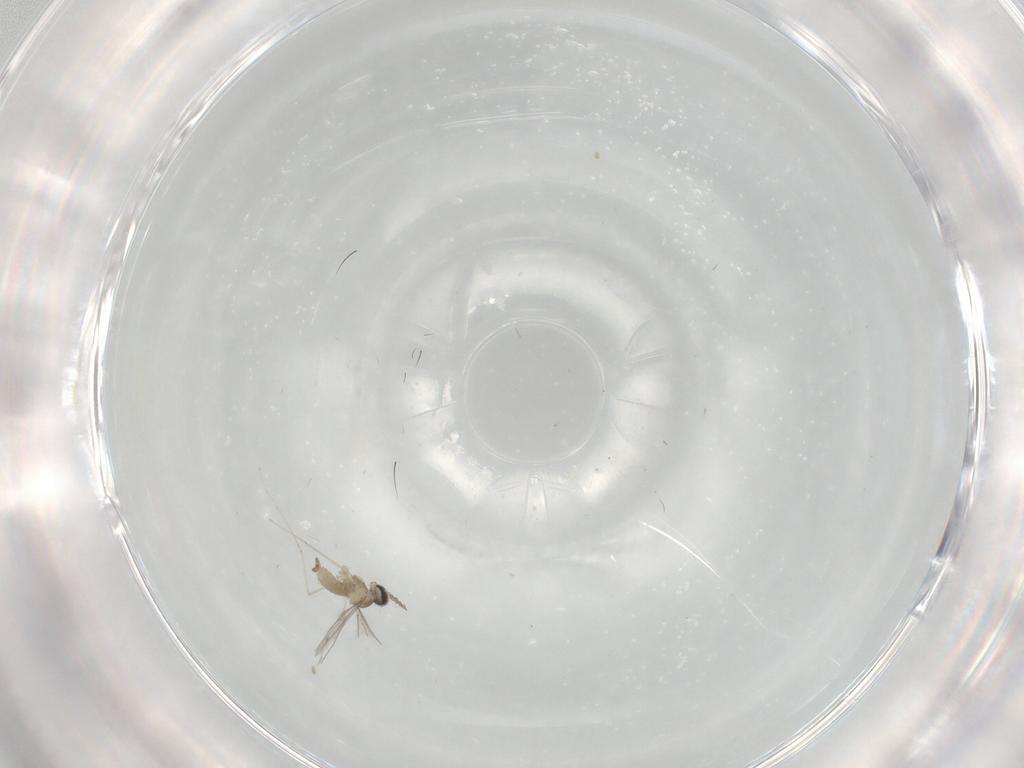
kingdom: Animalia
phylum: Arthropoda
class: Insecta
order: Diptera
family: Cecidomyiidae
